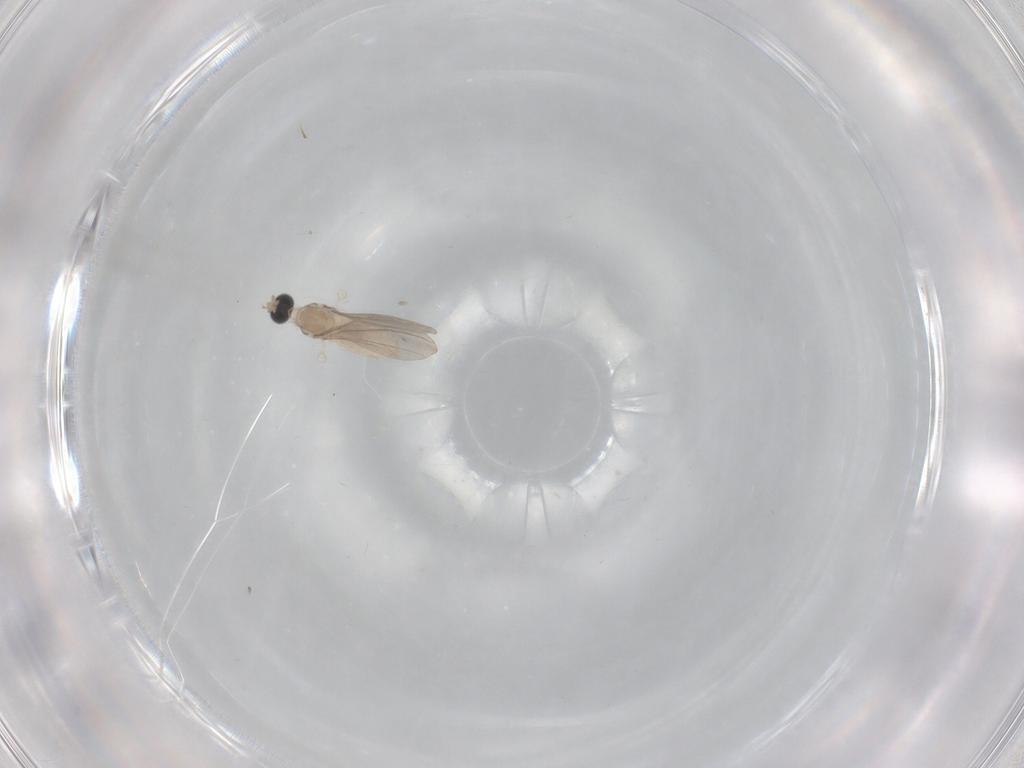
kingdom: Animalia
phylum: Arthropoda
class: Insecta
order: Diptera
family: Cecidomyiidae
